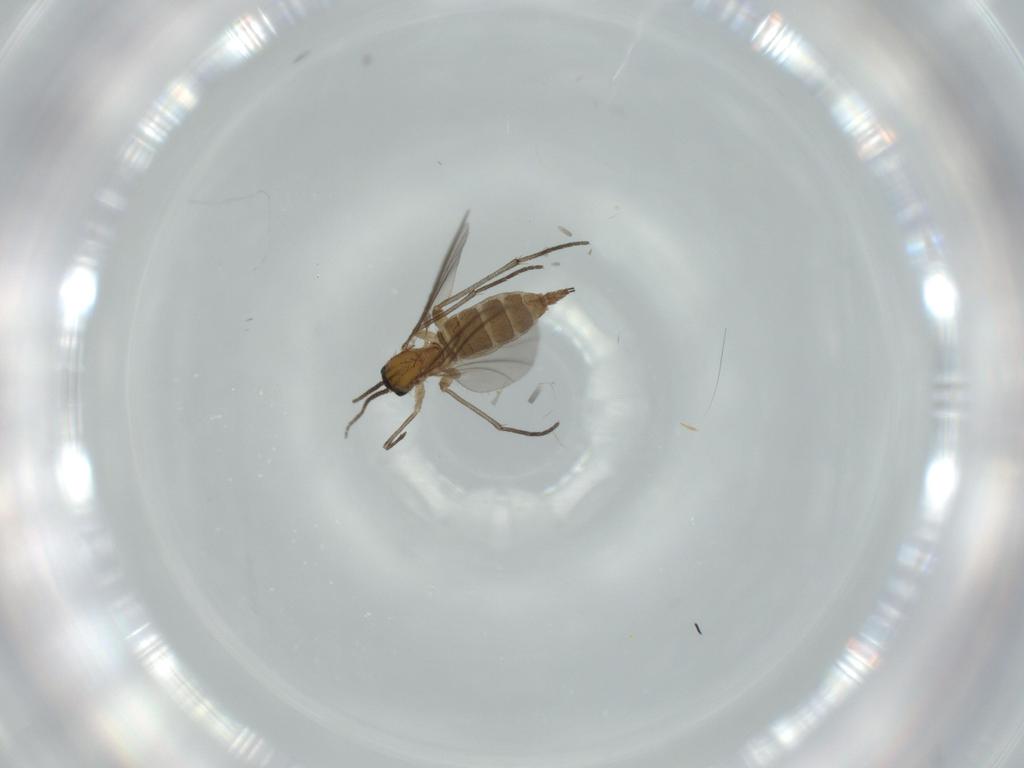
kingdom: Animalia
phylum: Arthropoda
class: Insecta
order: Diptera
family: Sciaridae
